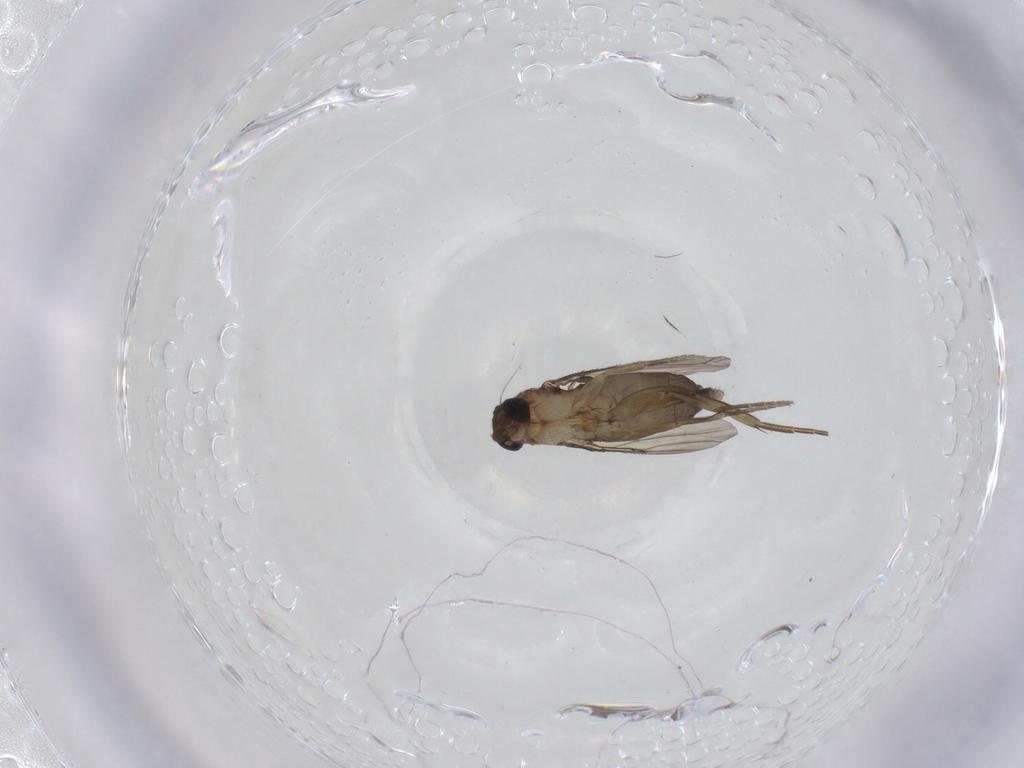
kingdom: Animalia
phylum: Arthropoda
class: Insecta
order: Diptera
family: Phoridae
